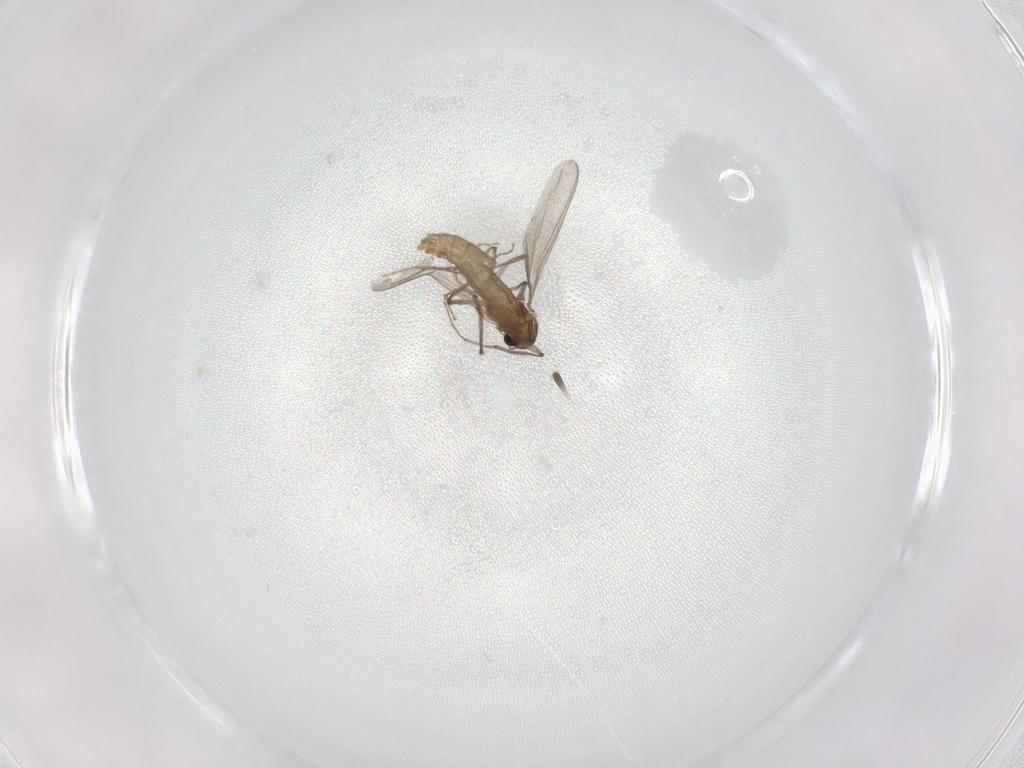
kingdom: Animalia
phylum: Arthropoda
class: Insecta
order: Diptera
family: Chironomidae
